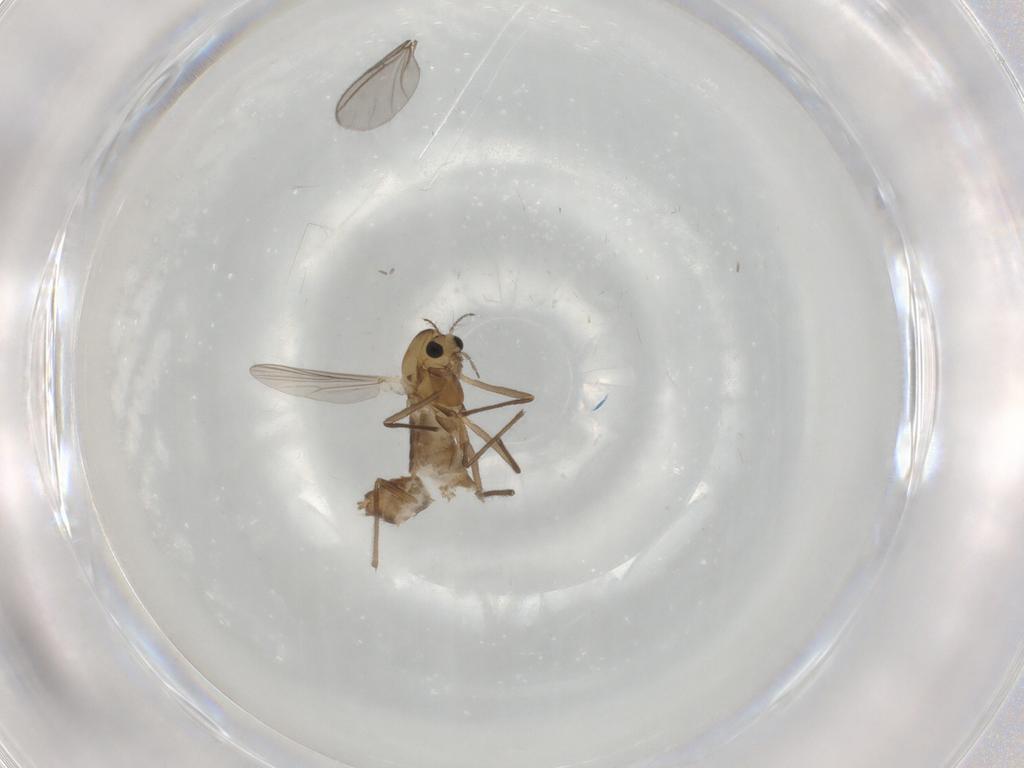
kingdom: Animalia
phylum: Arthropoda
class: Insecta
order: Diptera
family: Chironomidae
